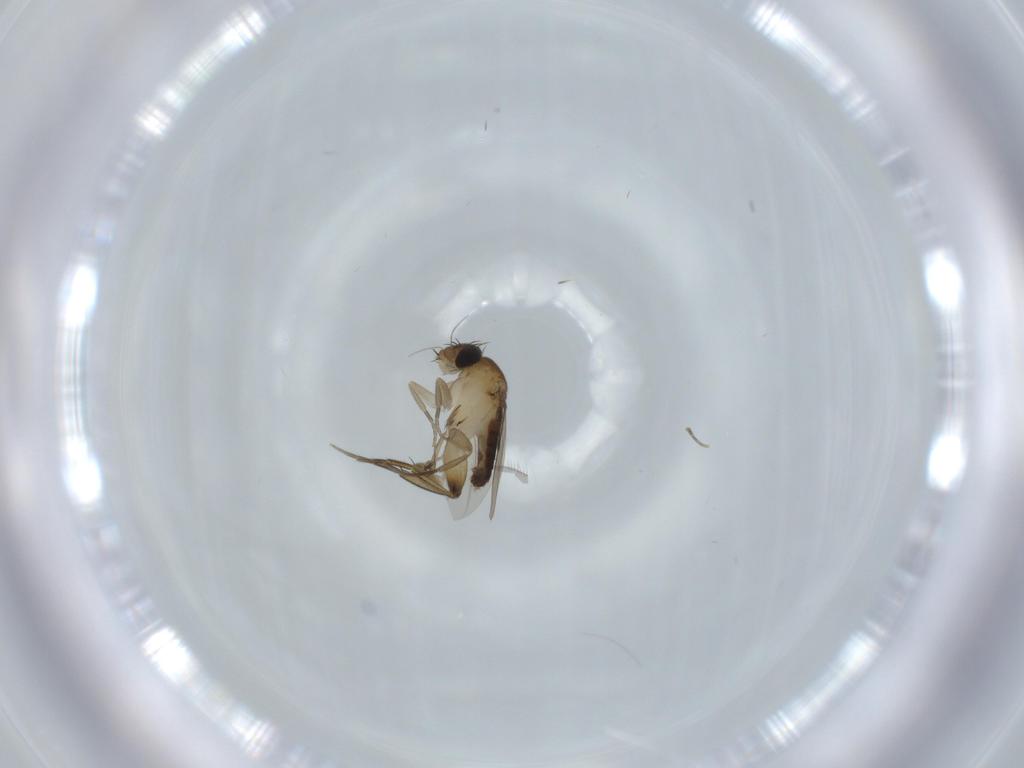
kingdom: Animalia
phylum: Arthropoda
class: Insecta
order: Diptera
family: Phoridae
